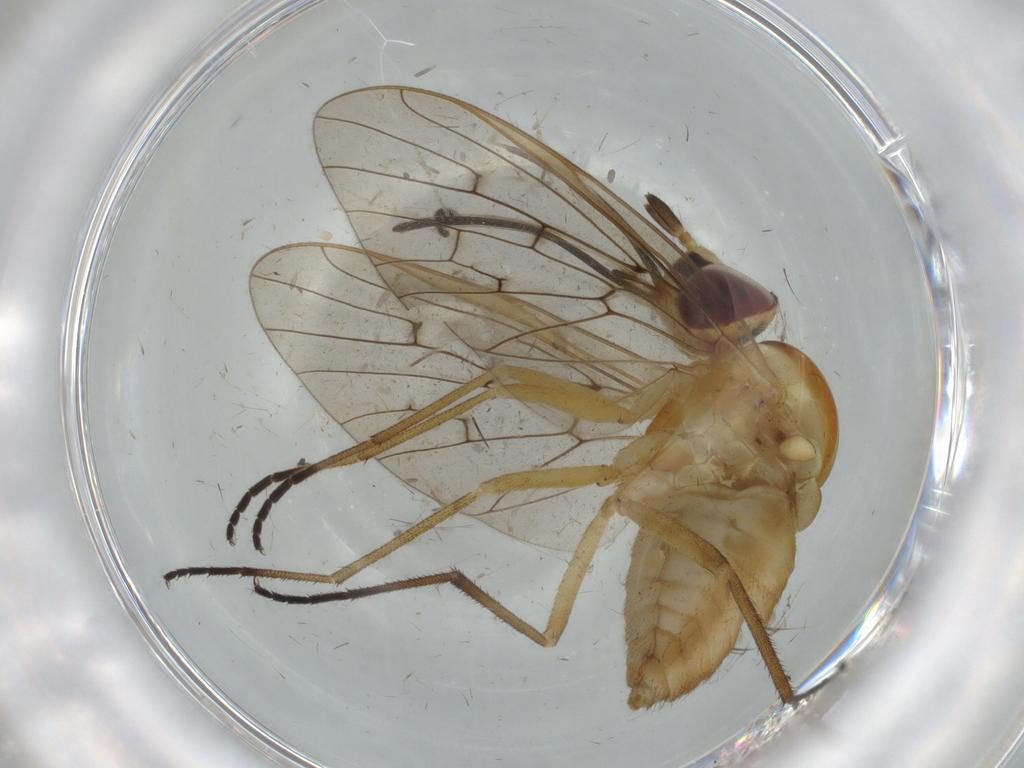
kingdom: Animalia
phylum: Arthropoda
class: Insecta
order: Diptera
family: Bombyliidae
